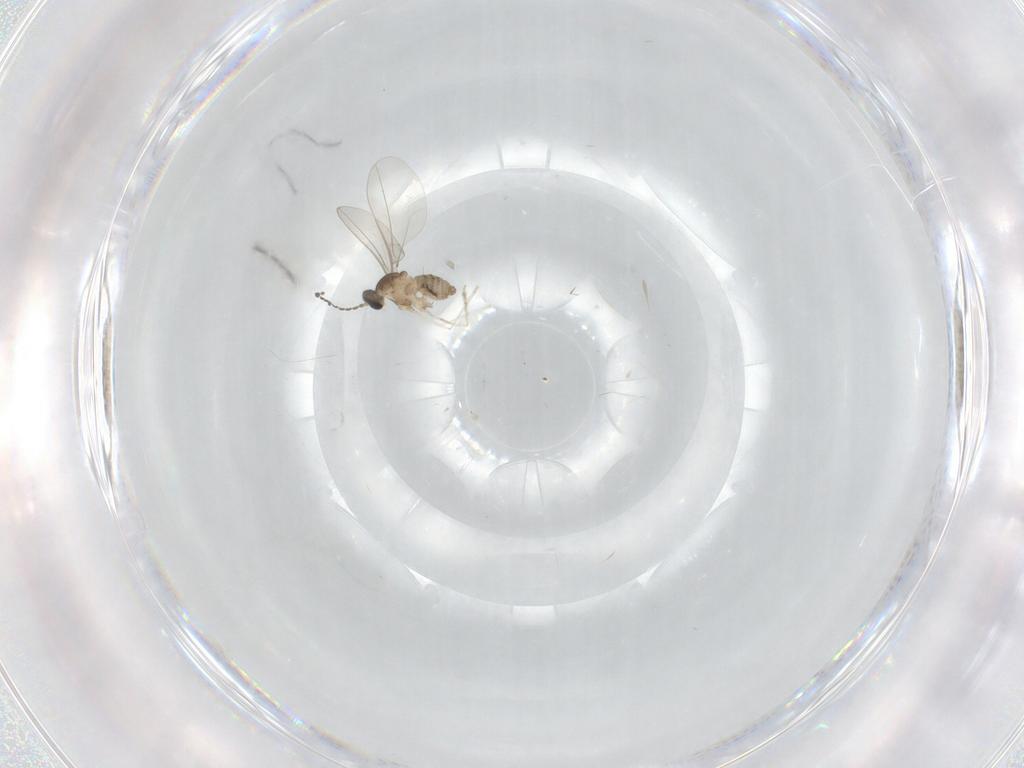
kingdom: Animalia
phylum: Arthropoda
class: Insecta
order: Diptera
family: Cecidomyiidae
